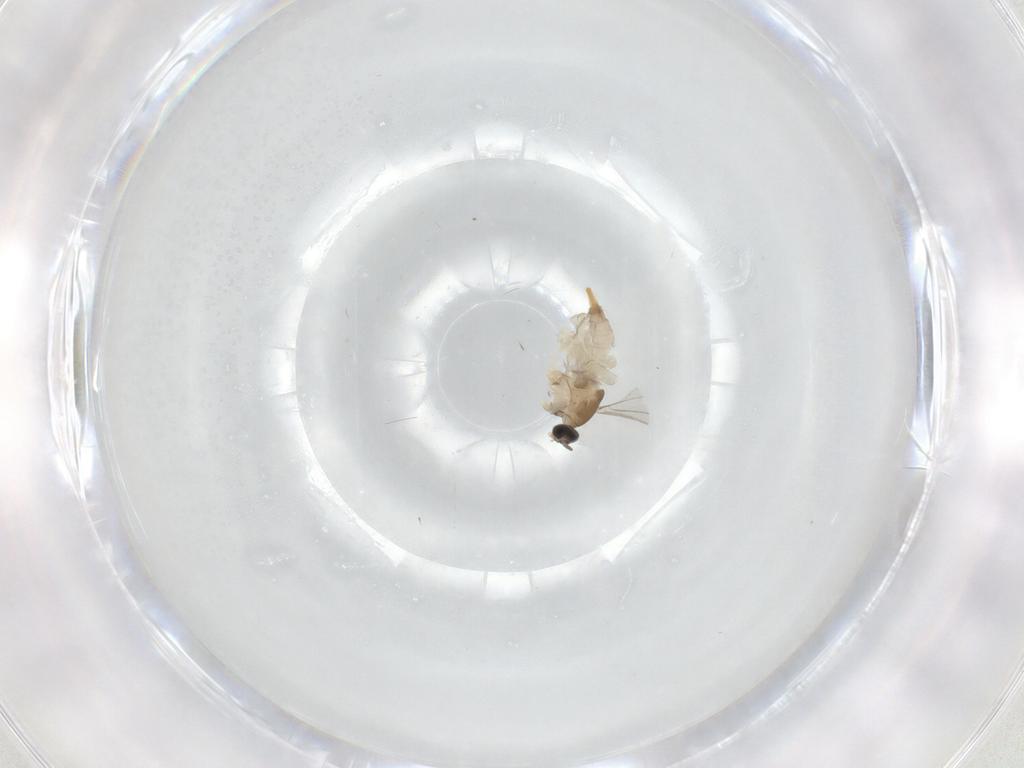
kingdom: Animalia
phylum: Arthropoda
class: Insecta
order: Diptera
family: Cecidomyiidae
